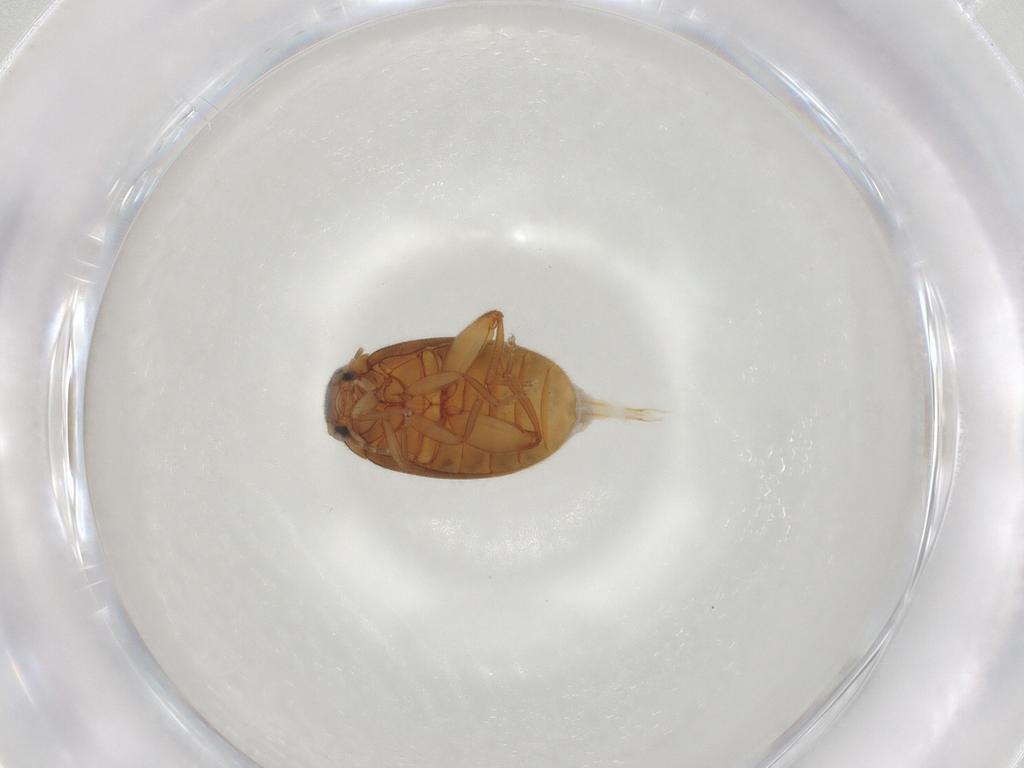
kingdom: Animalia
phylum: Arthropoda
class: Insecta
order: Coleoptera
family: Scirtidae
